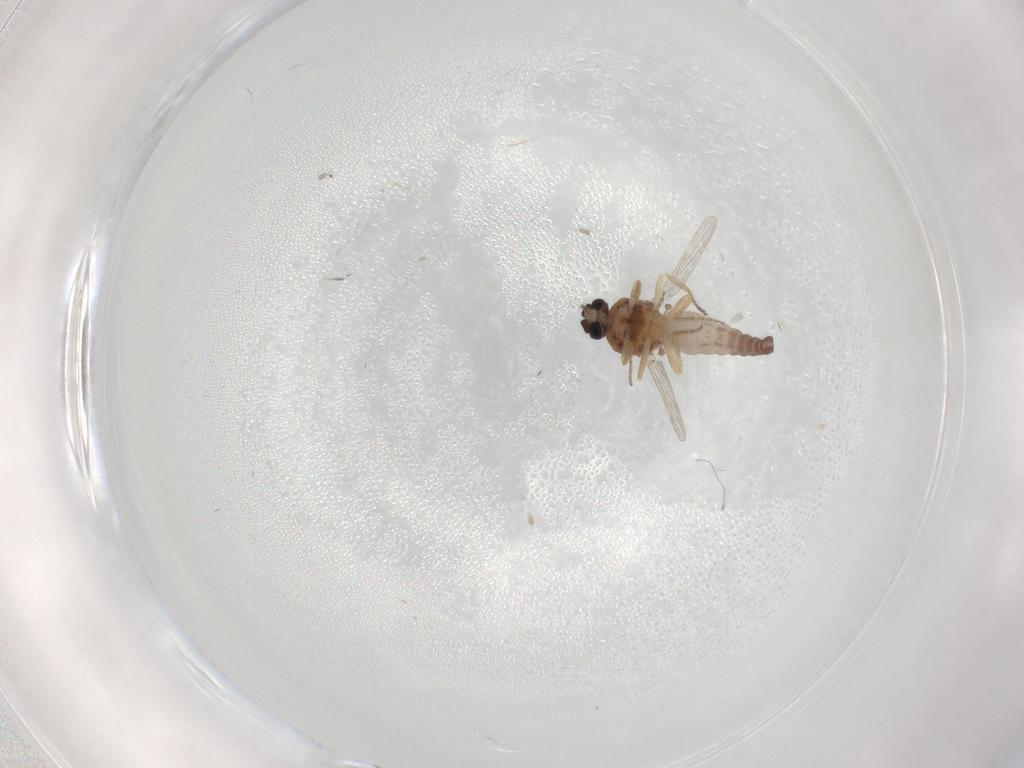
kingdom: Animalia
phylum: Arthropoda
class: Insecta
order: Diptera
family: Ceratopogonidae
